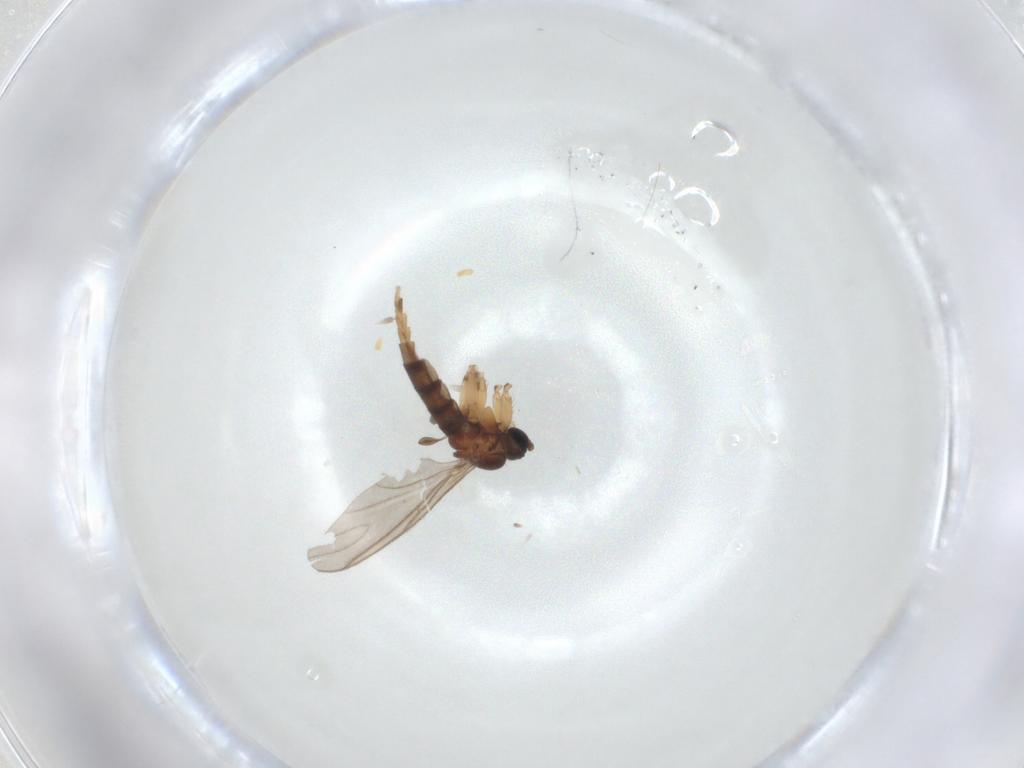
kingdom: Animalia
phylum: Arthropoda
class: Insecta
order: Diptera
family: Sciaridae
